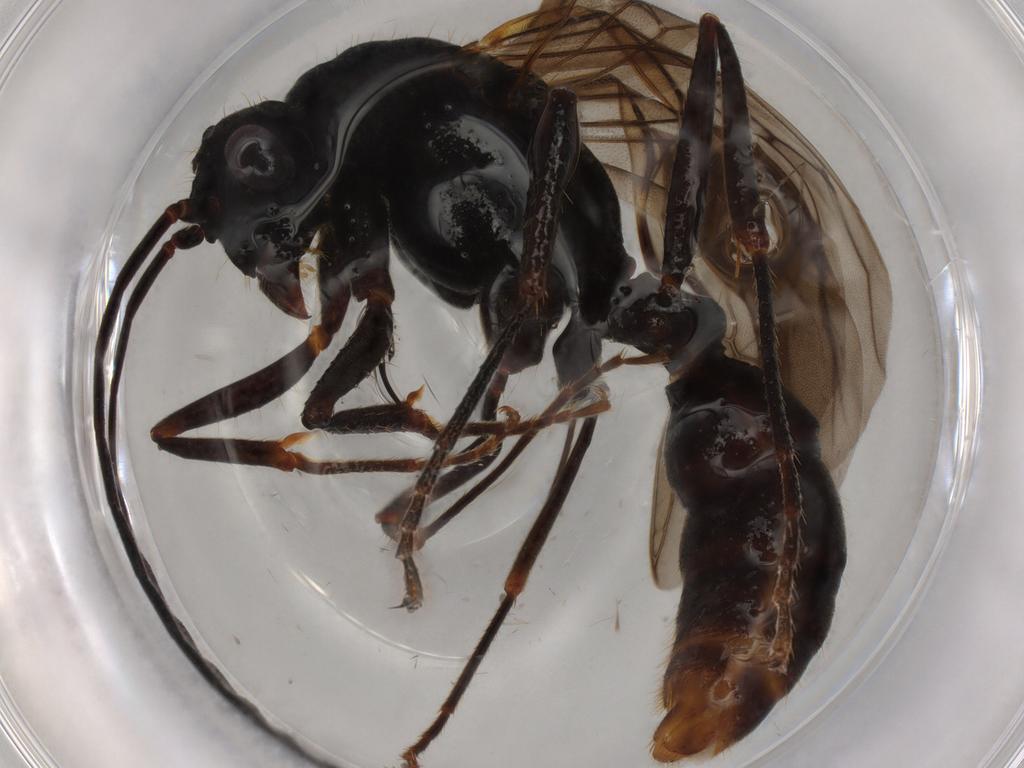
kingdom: Animalia
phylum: Arthropoda
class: Insecta
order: Hymenoptera
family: Formicidae
